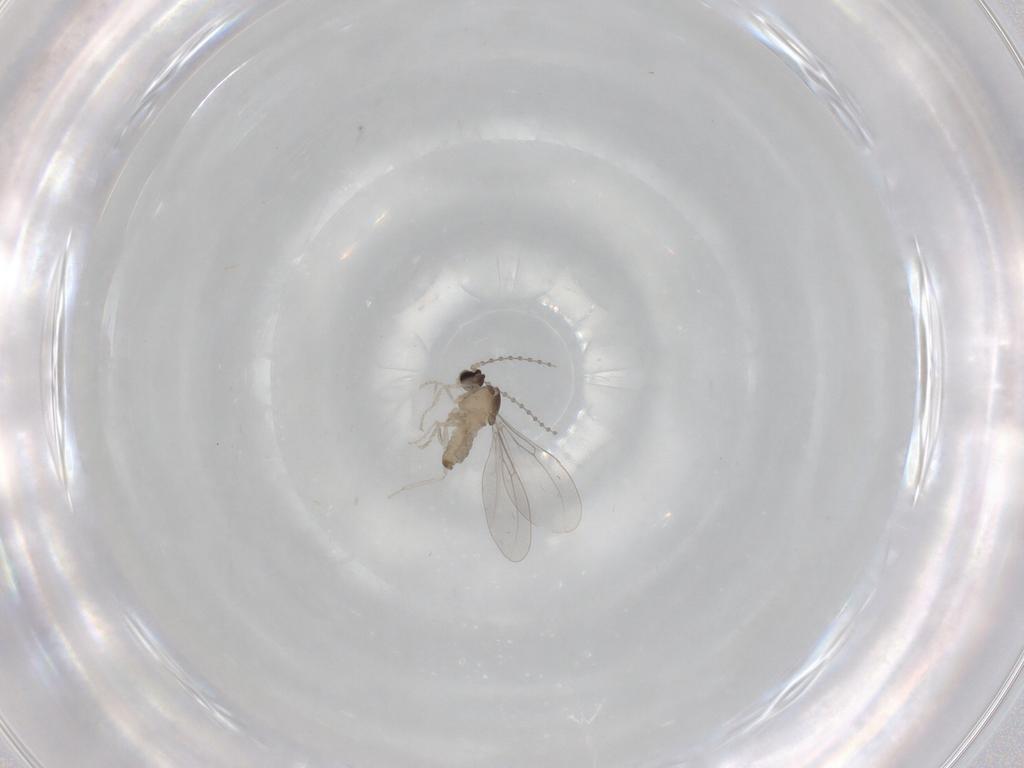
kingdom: Animalia
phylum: Arthropoda
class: Insecta
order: Diptera
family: Cecidomyiidae
